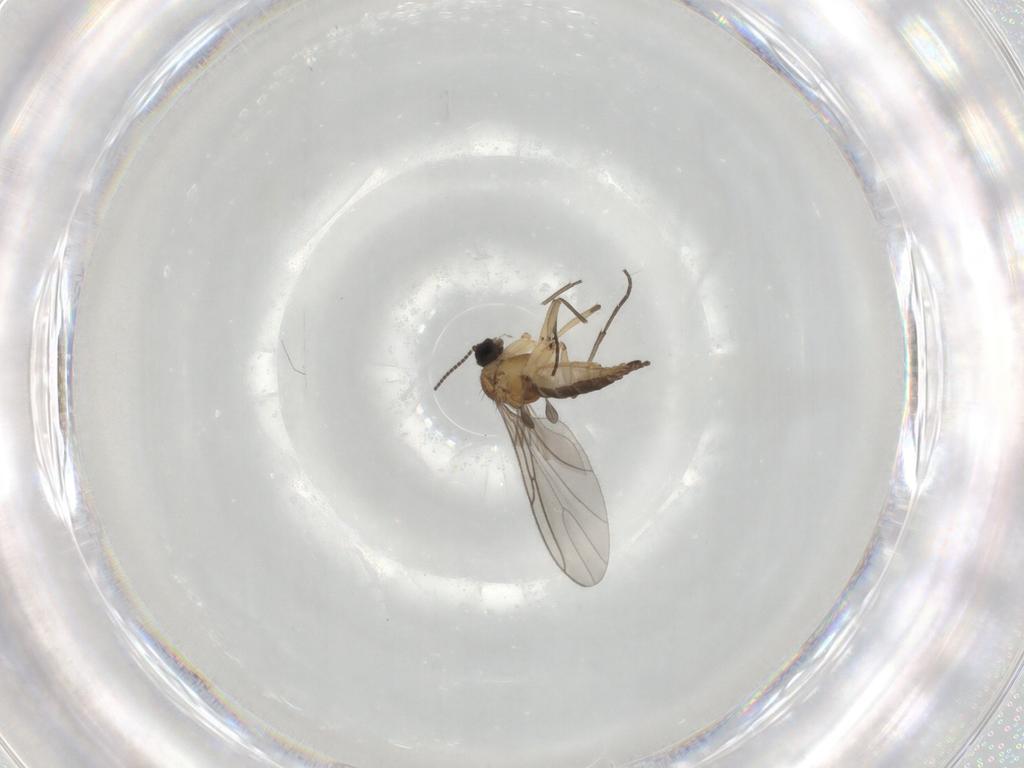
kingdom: Animalia
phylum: Arthropoda
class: Insecta
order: Diptera
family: Sciaridae
